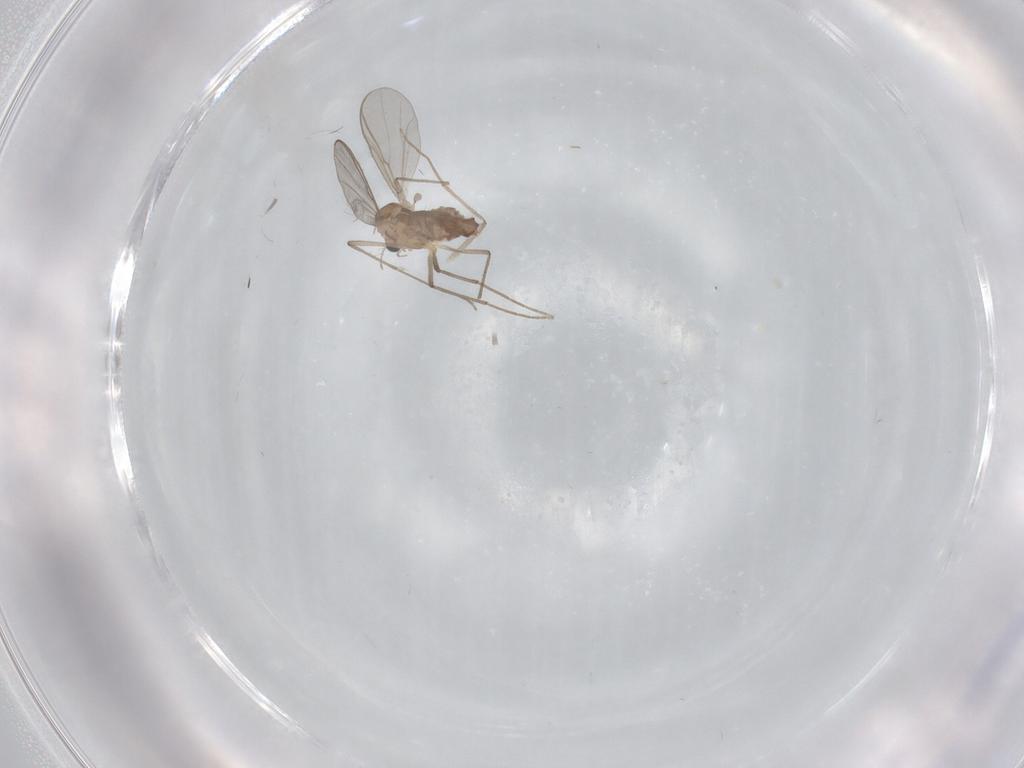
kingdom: Animalia
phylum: Arthropoda
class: Insecta
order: Diptera
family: Chironomidae
